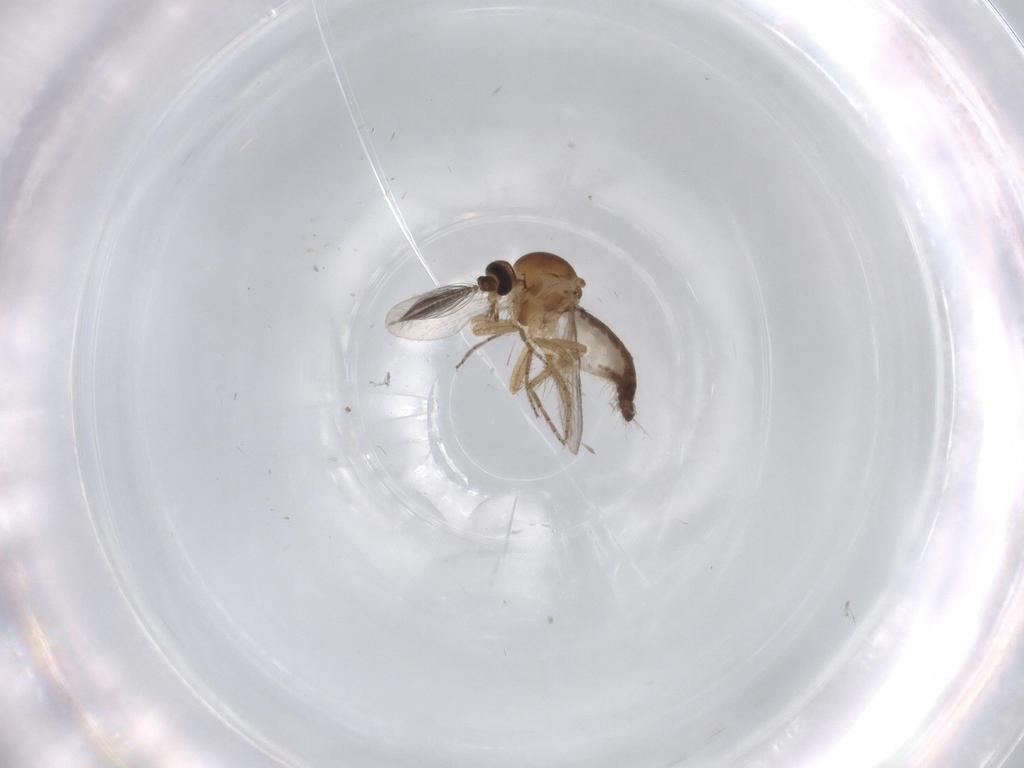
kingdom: Animalia
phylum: Arthropoda
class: Insecta
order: Diptera
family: Ceratopogonidae
